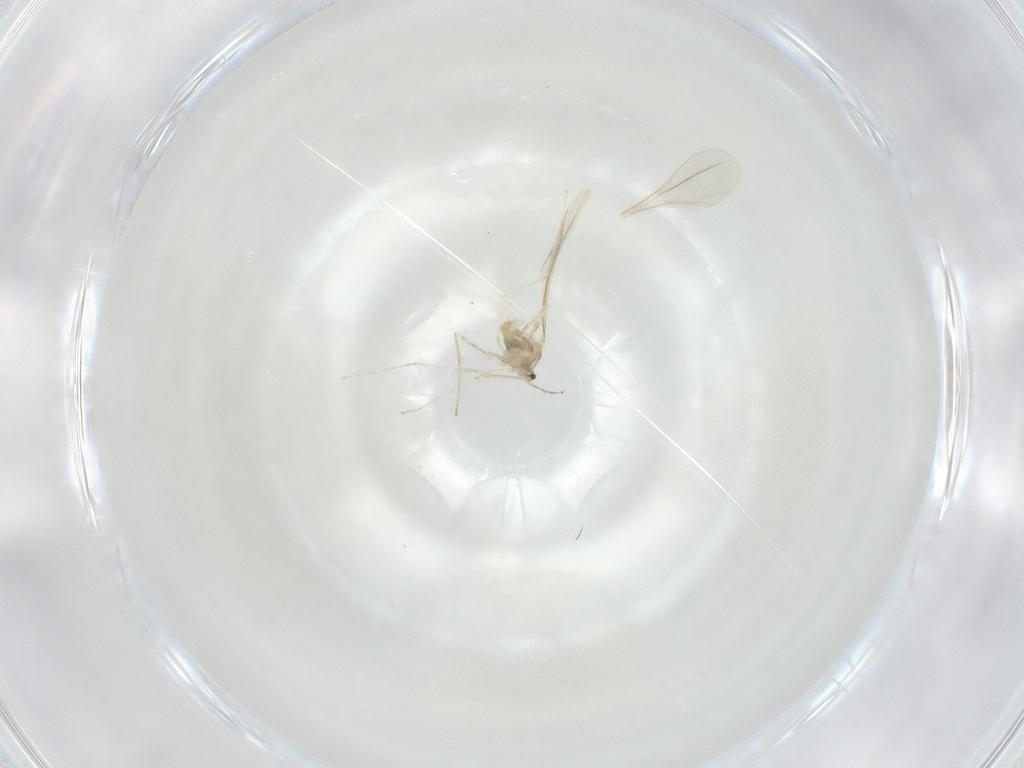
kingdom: Animalia
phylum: Arthropoda
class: Insecta
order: Diptera
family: Cecidomyiidae
